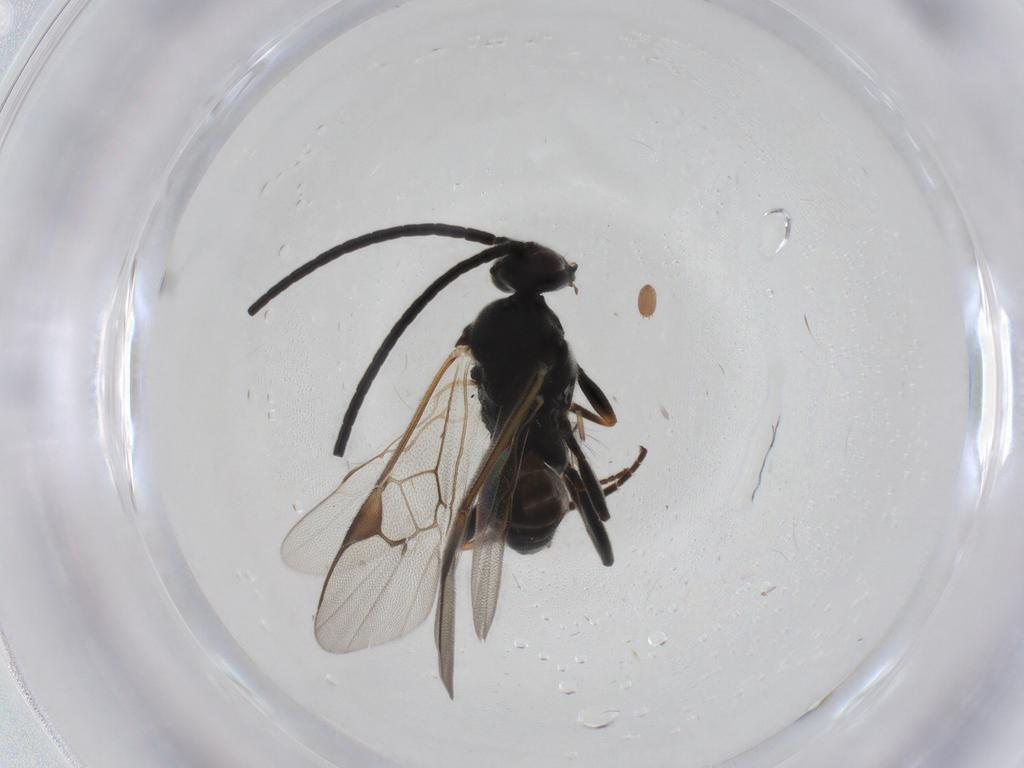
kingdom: Animalia
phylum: Arthropoda
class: Insecta
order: Hymenoptera
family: Braconidae
